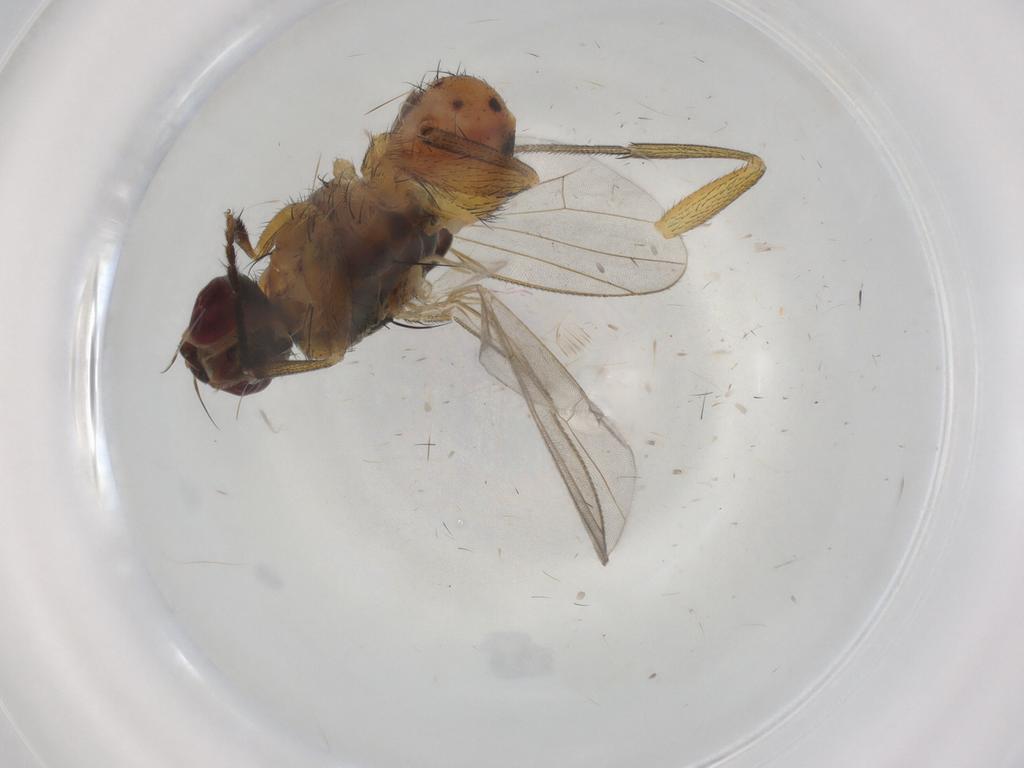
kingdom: Animalia
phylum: Arthropoda
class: Insecta
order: Diptera
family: Muscidae
